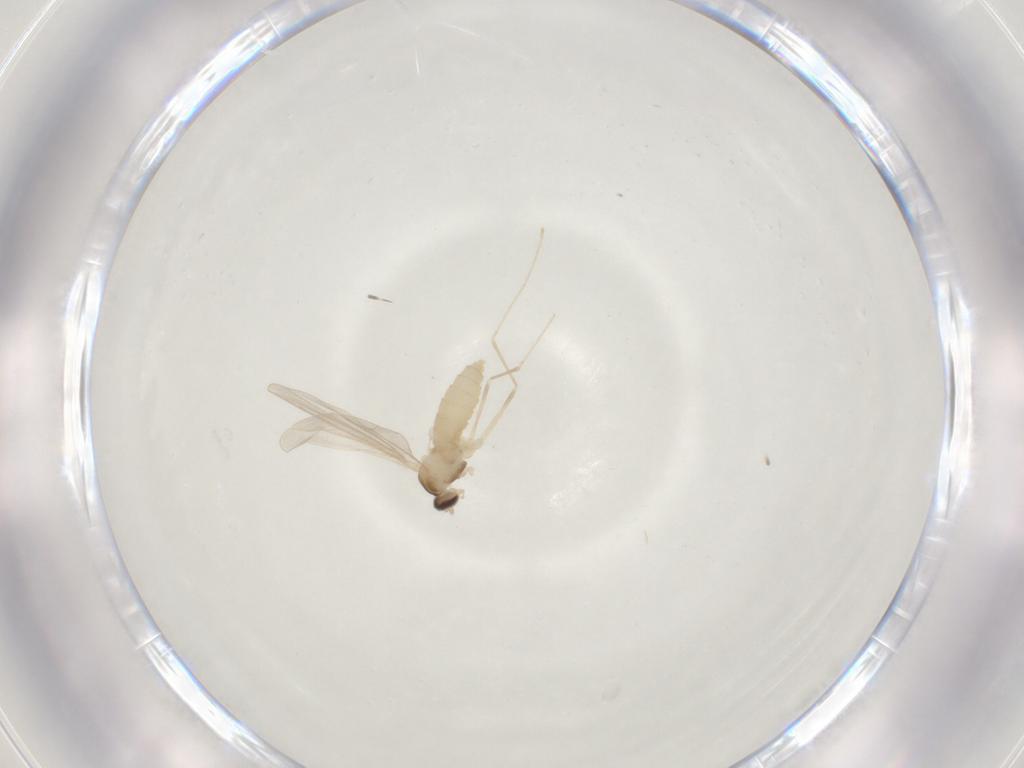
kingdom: Animalia
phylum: Arthropoda
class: Insecta
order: Diptera
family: Cecidomyiidae
